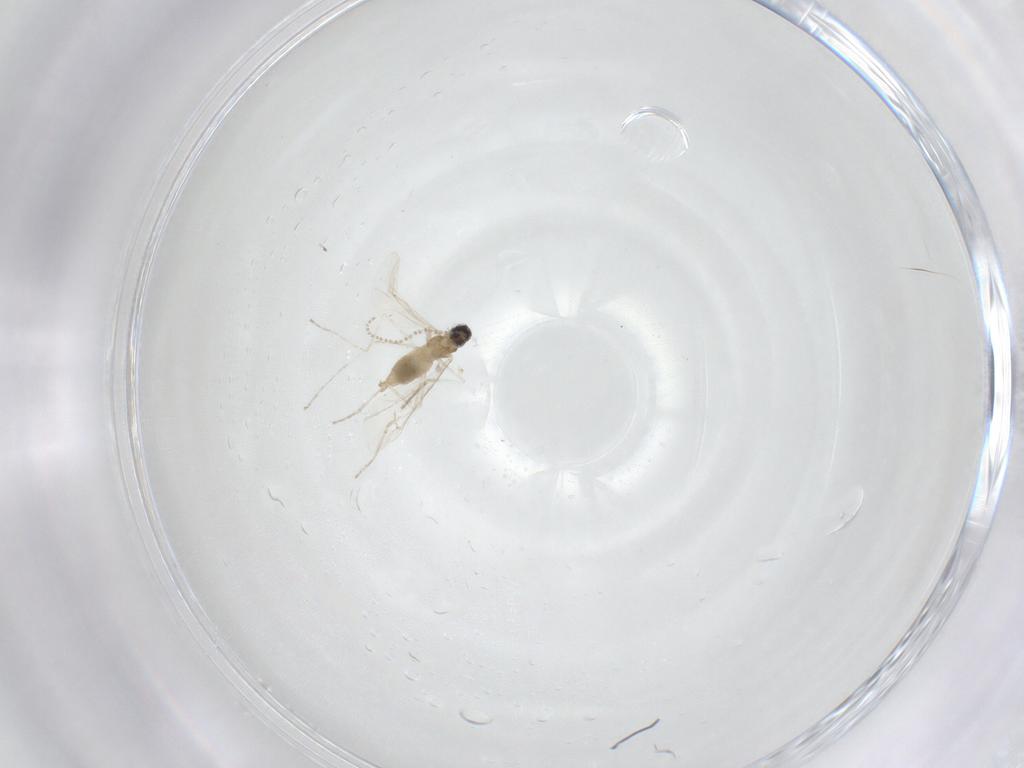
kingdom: Animalia
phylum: Arthropoda
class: Insecta
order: Diptera
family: Cecidomyiidae
